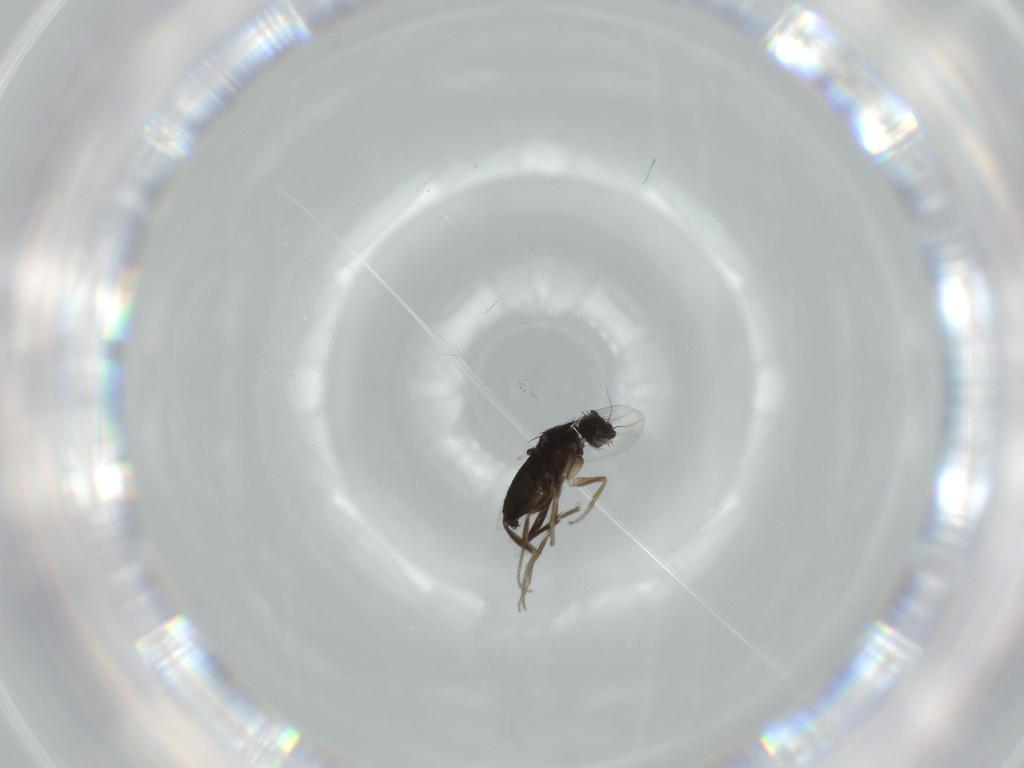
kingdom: Animalia
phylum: Arthropoda
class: Insecta
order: Diptera
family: Phoridae
